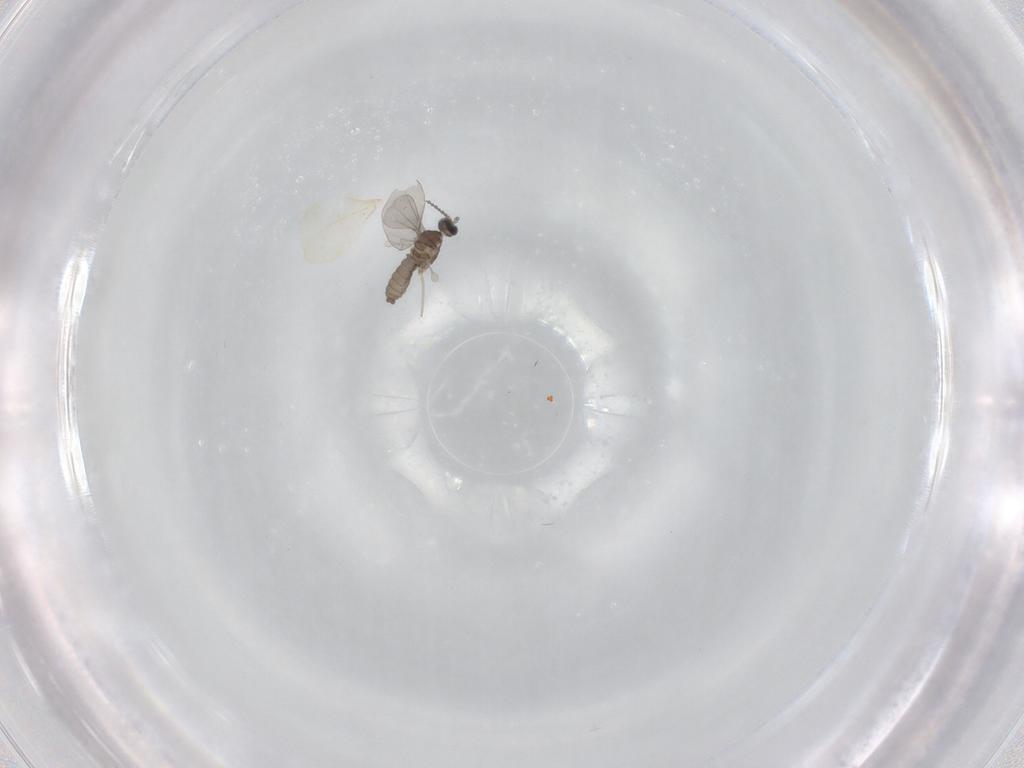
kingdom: Animalia
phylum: Arthropoda
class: Insecta
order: Diptera
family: Cecidomyiidae
